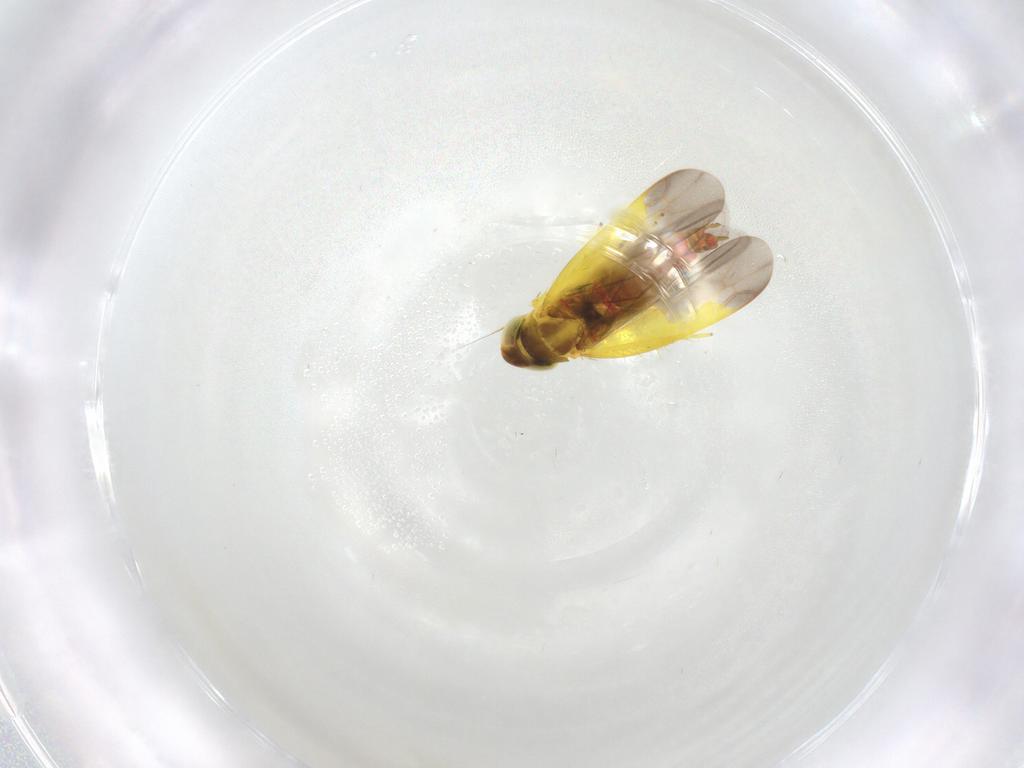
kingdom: Animalia
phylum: Arthropoda
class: Insecta
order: Hemiptera
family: Cicadellidae
